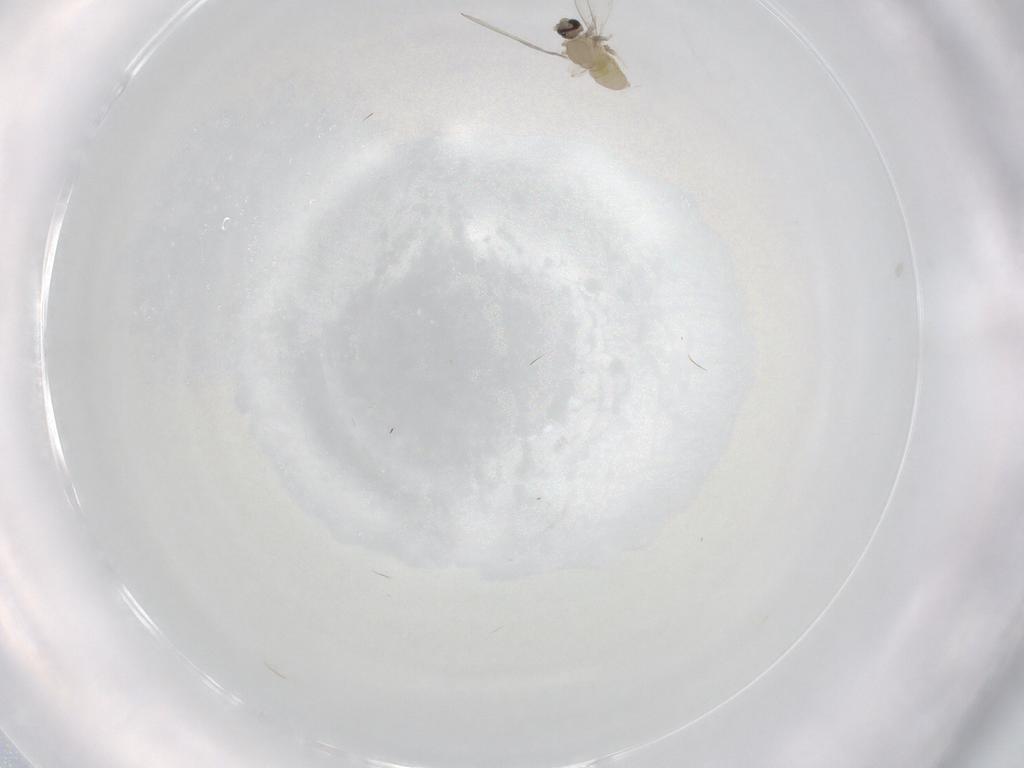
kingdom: Animalia
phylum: Arthropoda
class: Insecta
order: Diptera
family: Cecidomyiidae
